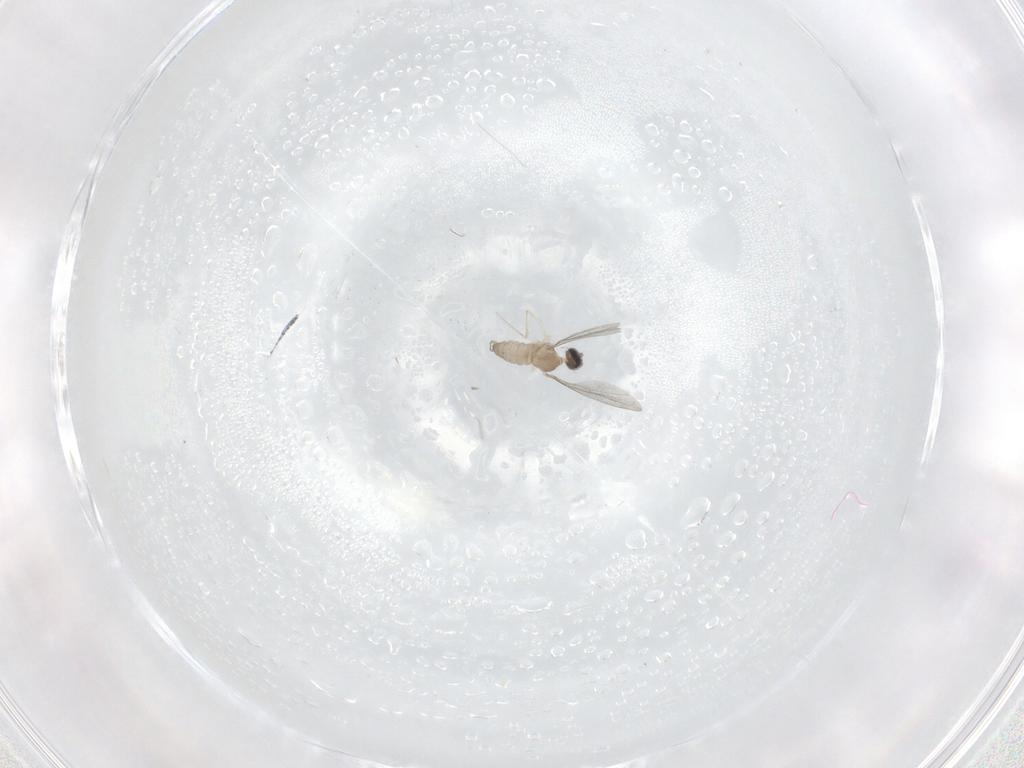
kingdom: Animalia
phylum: Arthropoda
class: Insecta
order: Diptera
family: Cecidomyiidae
